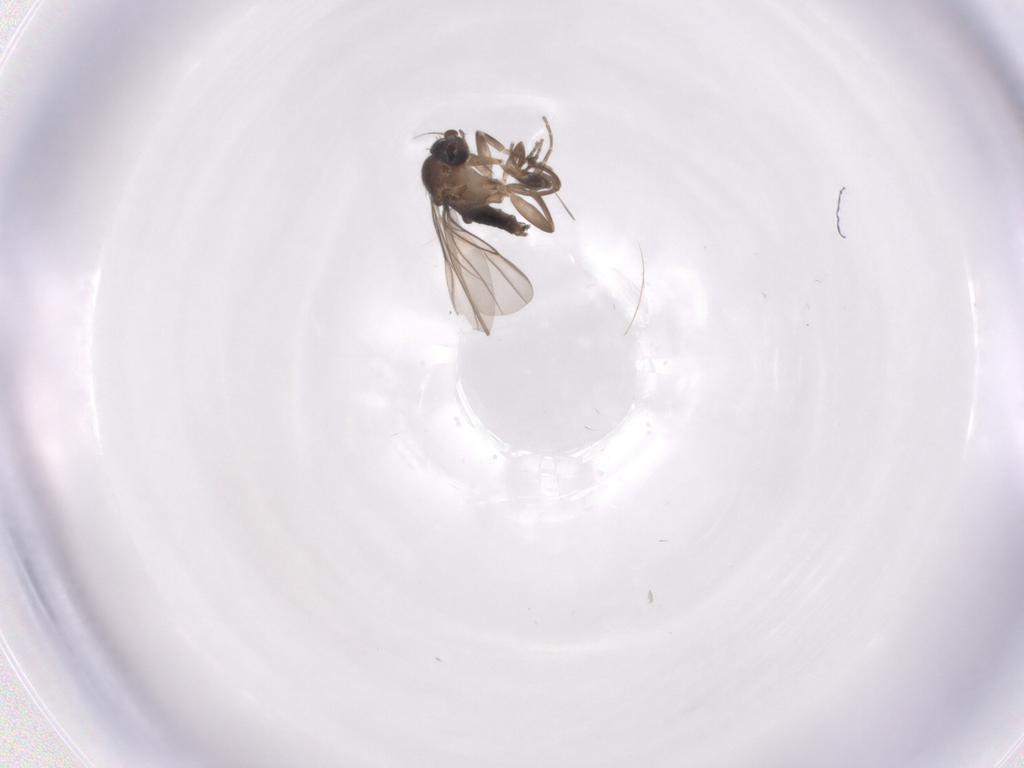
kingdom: Animalia
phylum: Arthropoda
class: Insecta
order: Diptera
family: Phoridae
